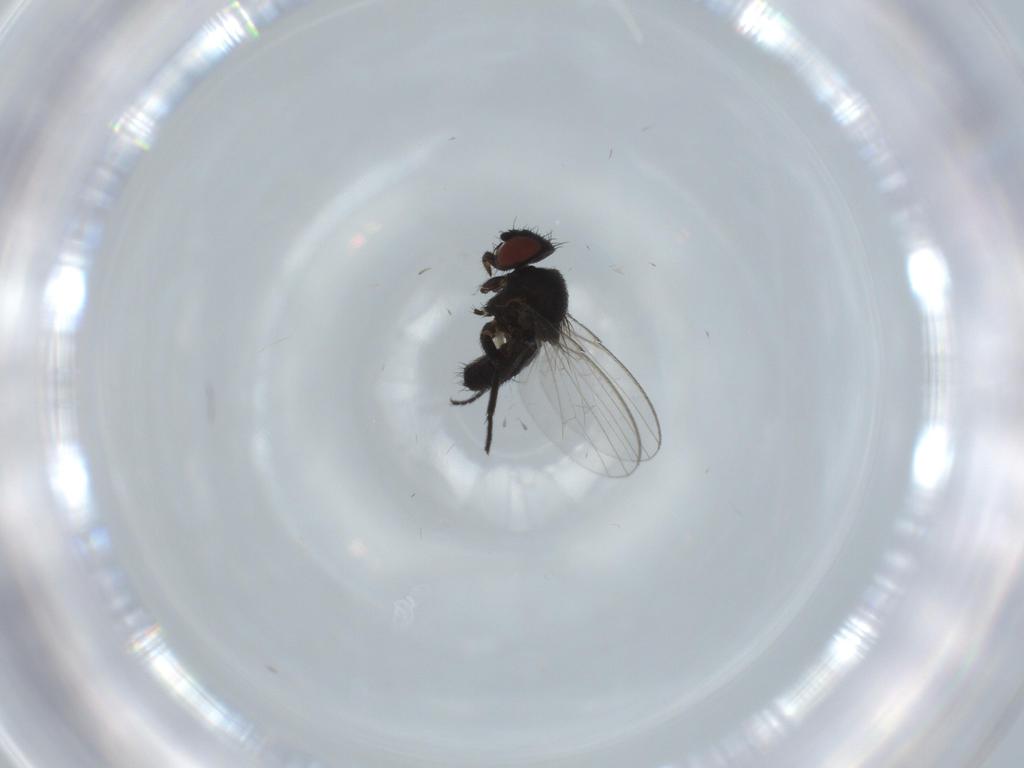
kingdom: Animalia
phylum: Arthropoda
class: Insecta
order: Diptera
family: Milichiidae
